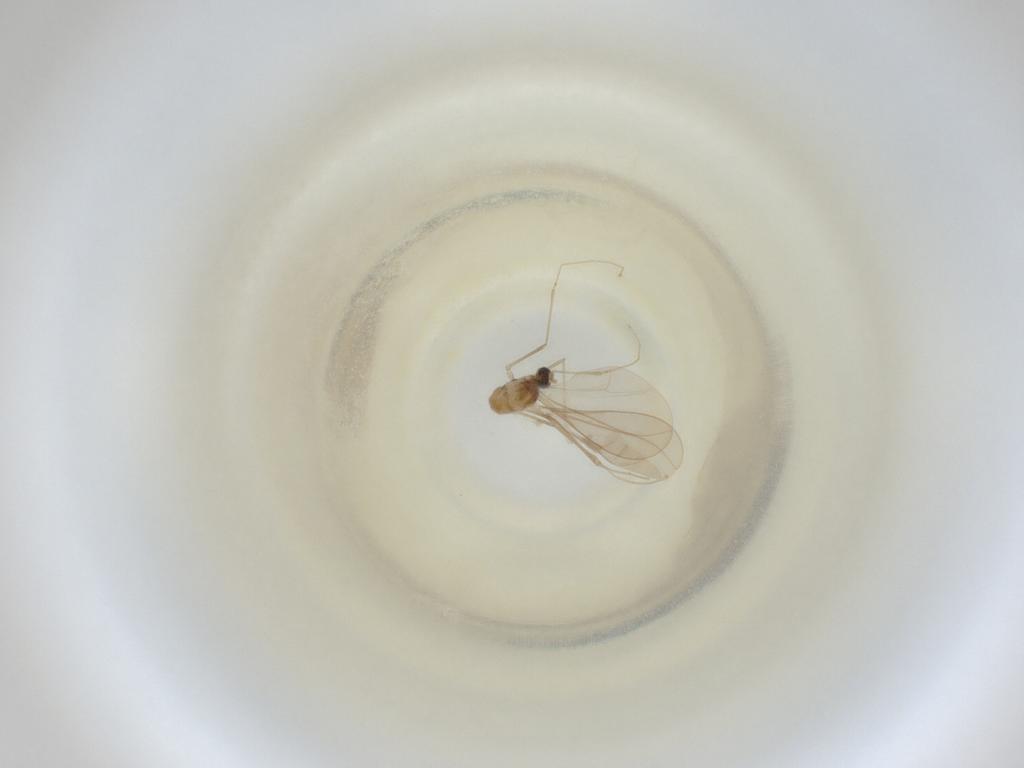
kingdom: Animalia
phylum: Arthropoda
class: Insecta
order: Diptera
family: Cecidomyiidae
